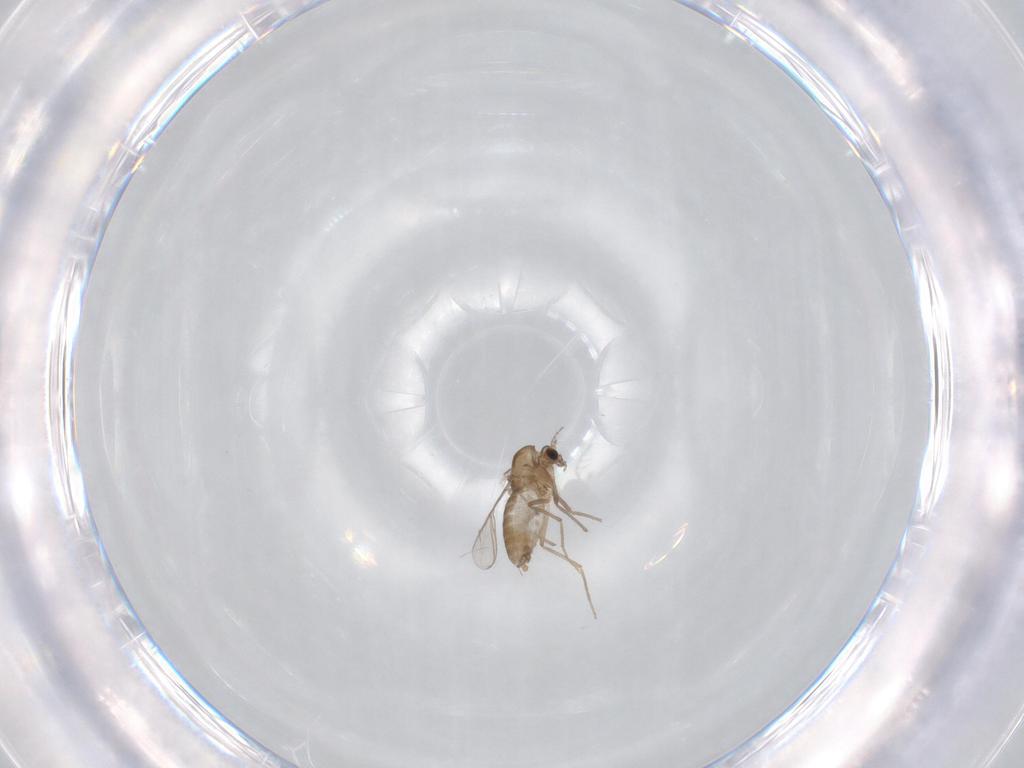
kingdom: Animalia
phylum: Arthropoda
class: Insecta
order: Diptera
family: Chironomidae
